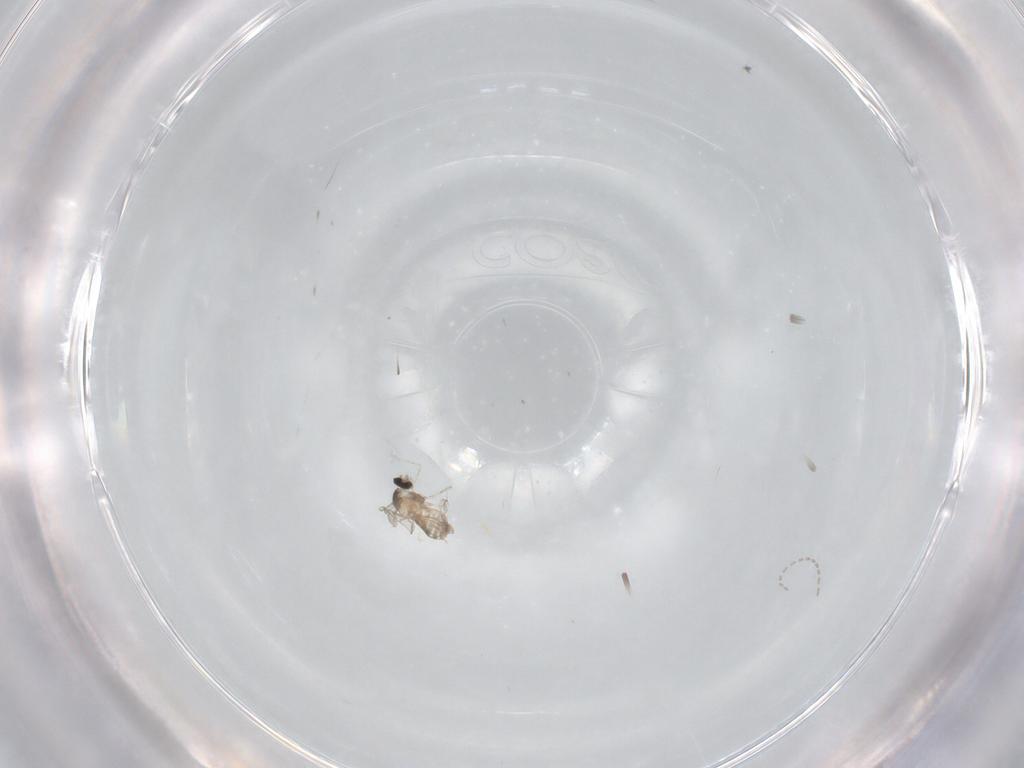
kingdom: Animalia
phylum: Arthropoda
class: Insecta
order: Diptera
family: Cecidomyiidae
